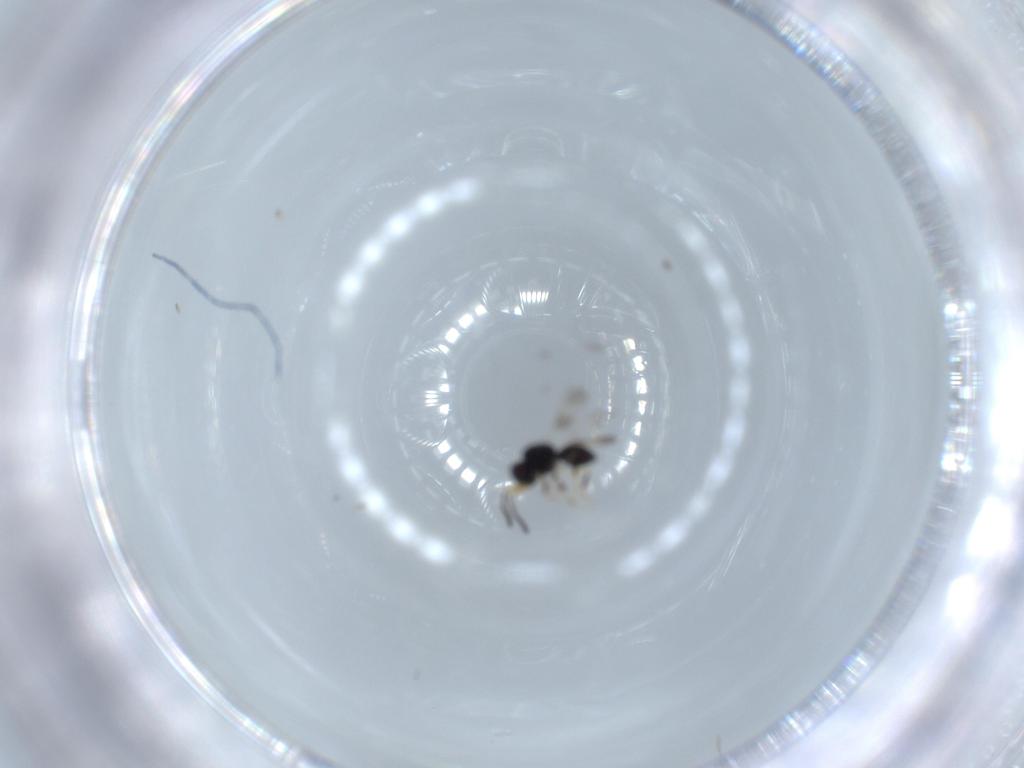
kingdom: Animalia
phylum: Arthropoda
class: Insecta
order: Hymenoptera
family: Ceraphronidae
